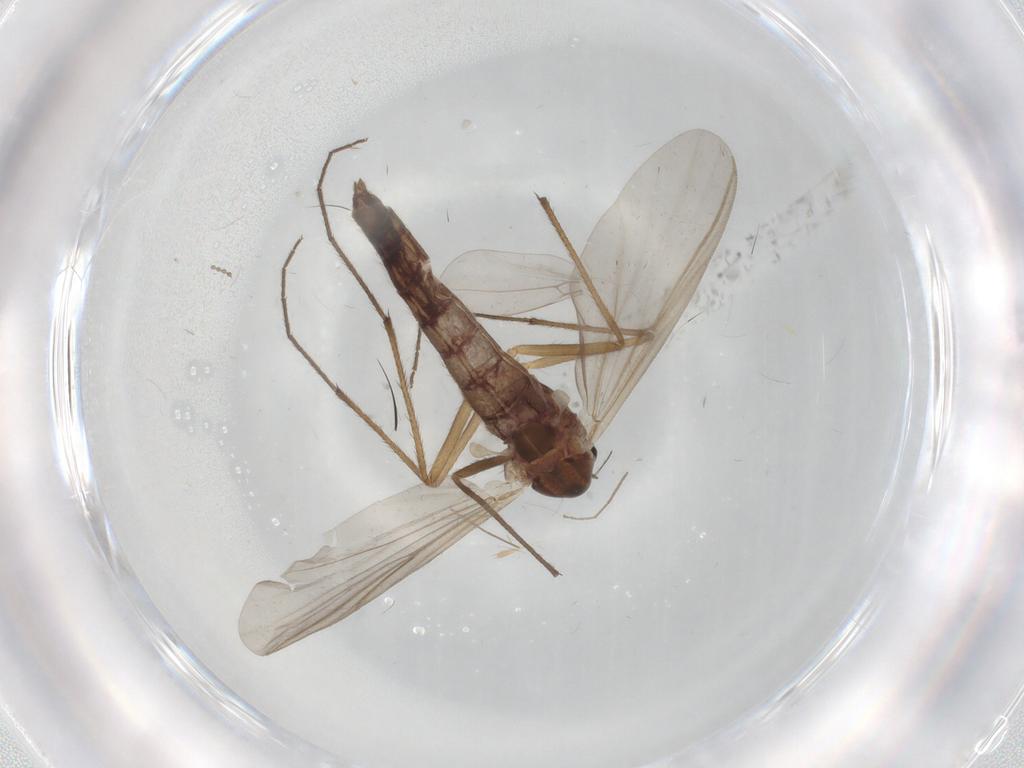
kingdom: Animalia
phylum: Arthropoda
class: Insecta
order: Diptera
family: Chironomidae
